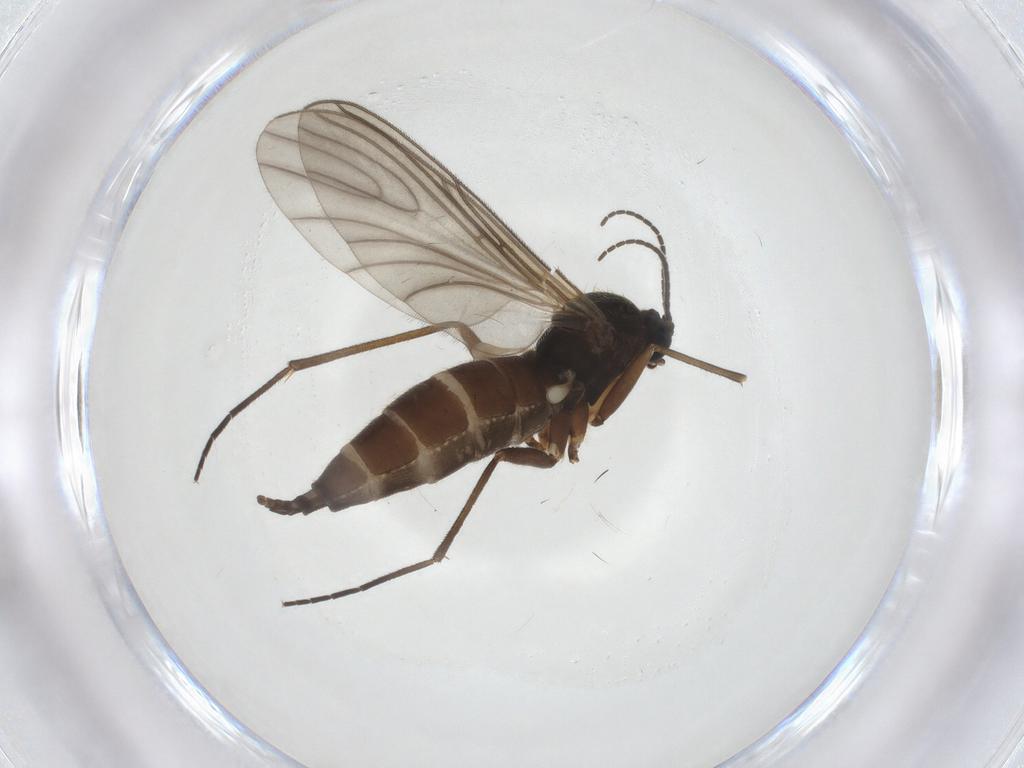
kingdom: Animalia
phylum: Arthropoda
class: Insecta
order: Diptera
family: Sciaridae
